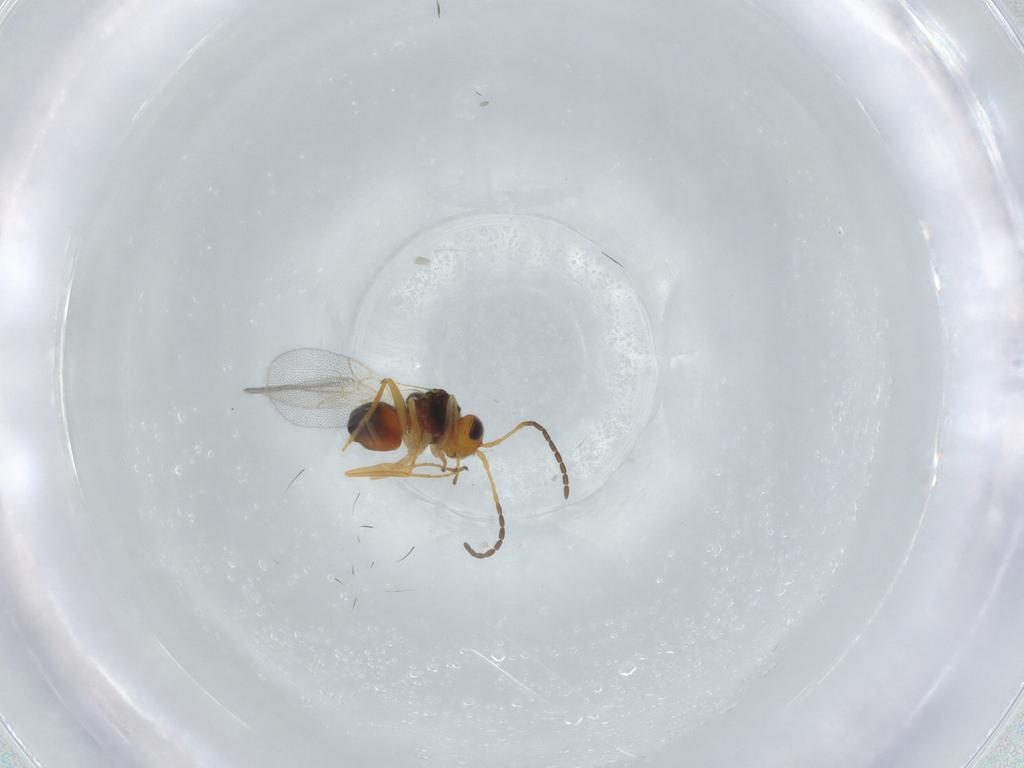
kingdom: Animalia
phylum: Arthropoda
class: Insecta
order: Hymenoptera
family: Figitidae
